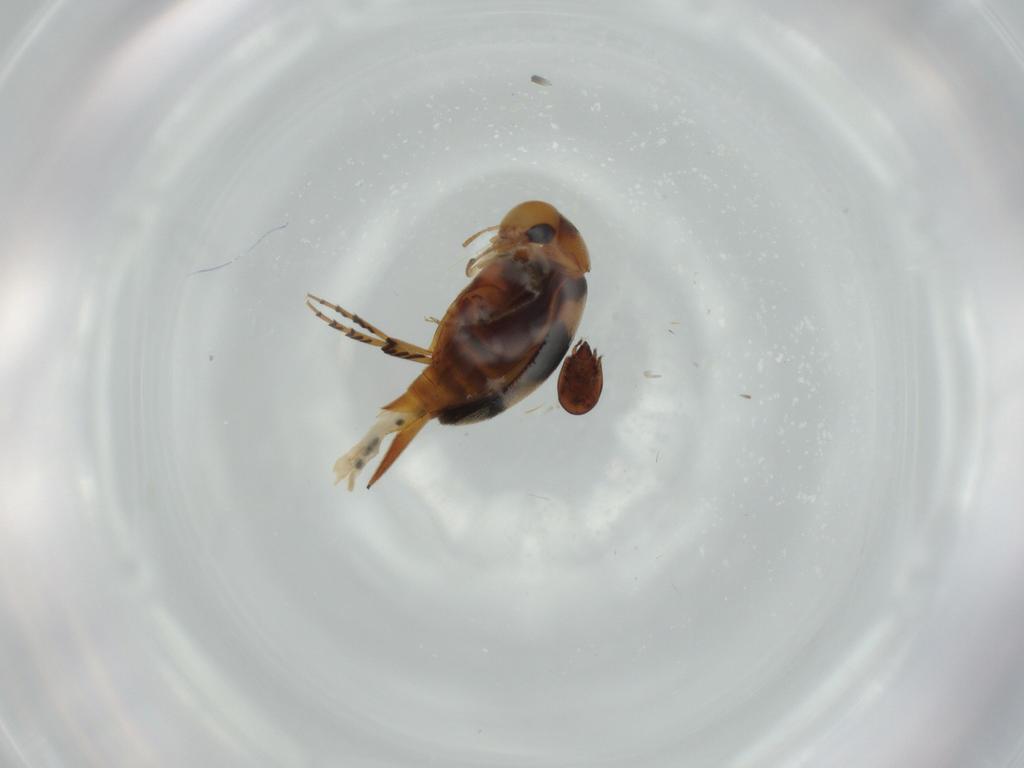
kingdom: Animalia
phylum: Arthropoda
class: Insecta
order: Coleoptera
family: Mordellidae
